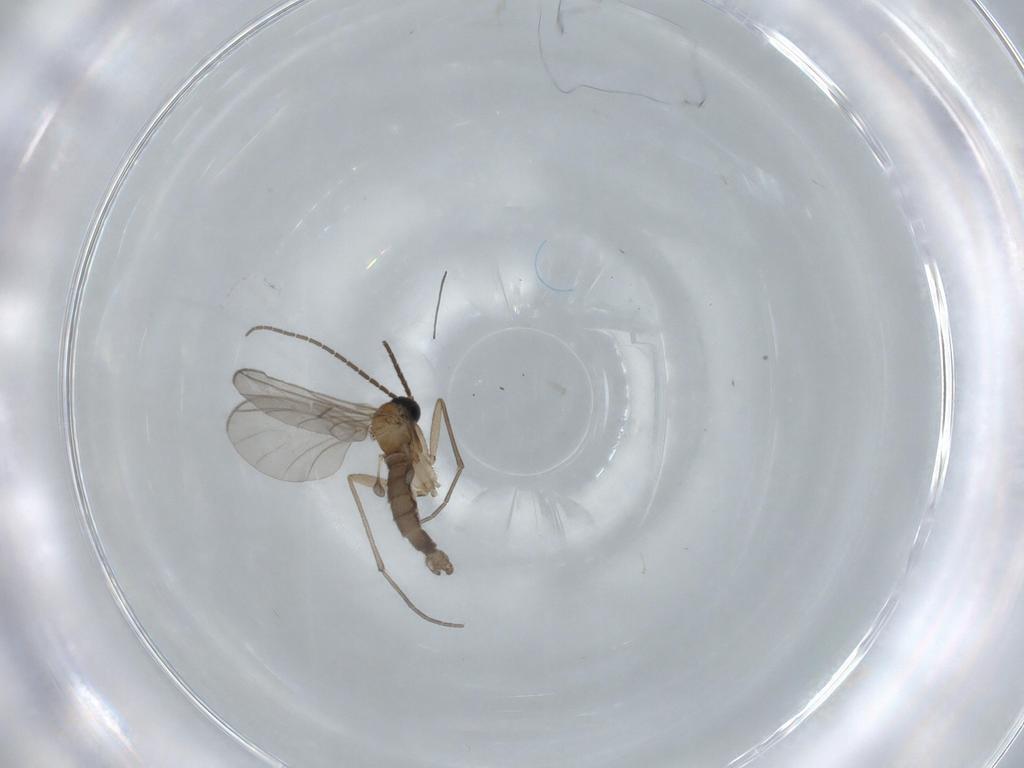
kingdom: Animalia
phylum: Arthropoda
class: Insecta
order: Diptera
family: Sciaridae
